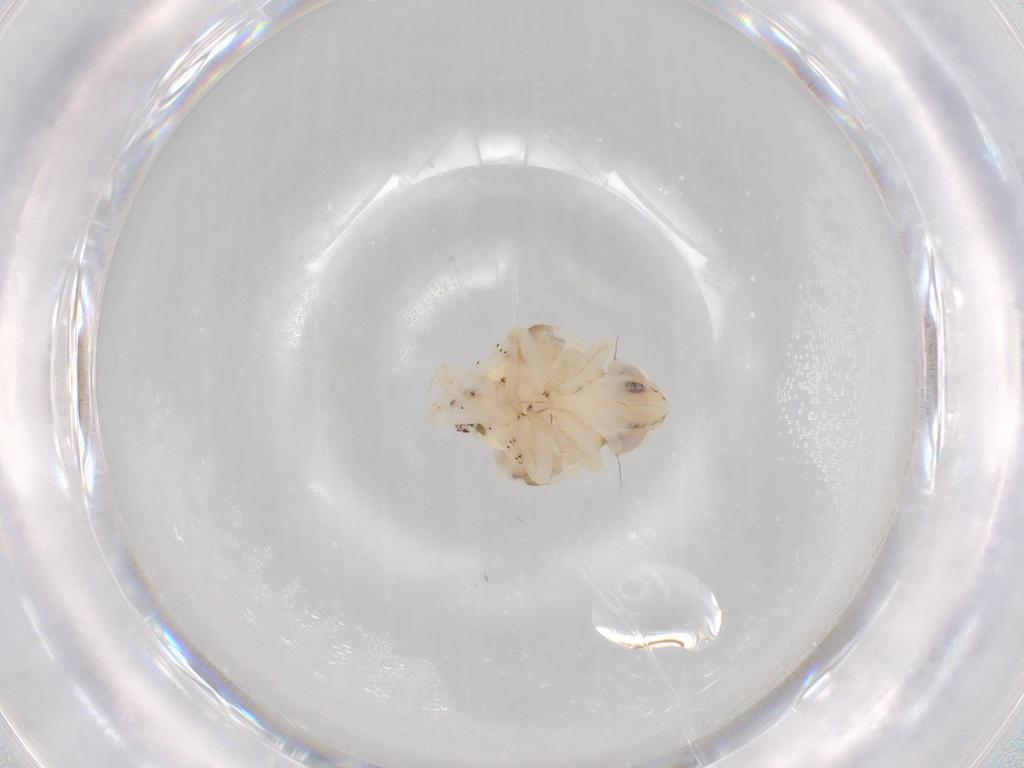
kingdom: Animalia
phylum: Arthropoda
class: Insecta
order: Hemiptera
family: Nogodinidae
